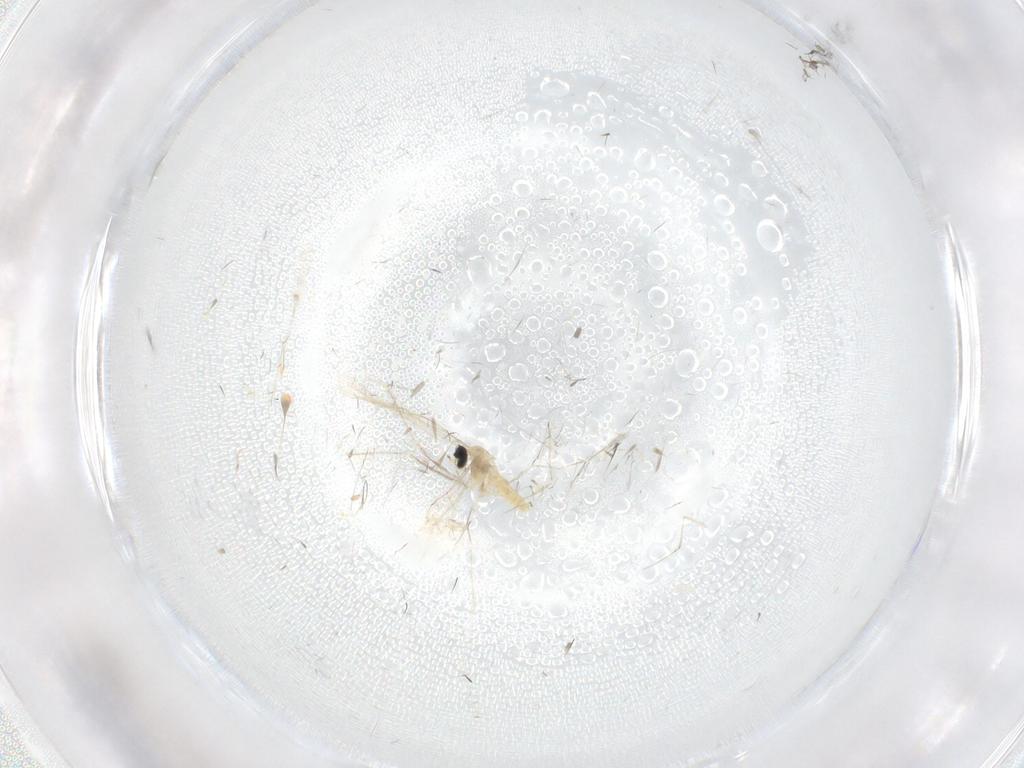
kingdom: Animalia
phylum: Arthropoda
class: Insecta
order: Diptera
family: Cecidomyiidae
